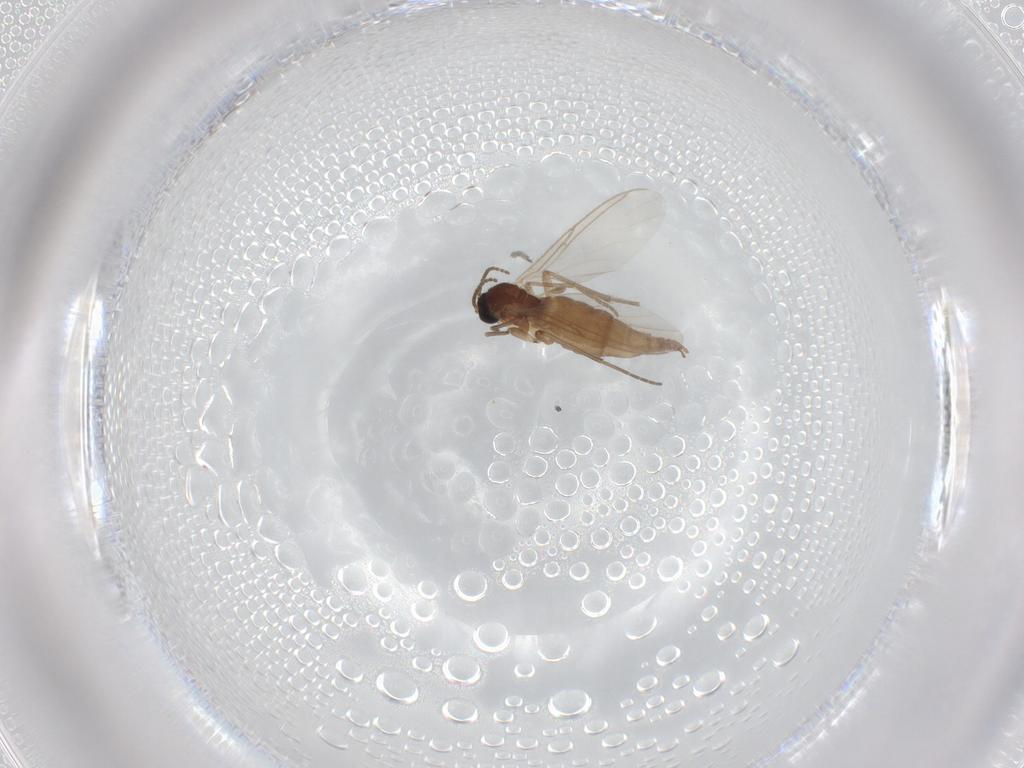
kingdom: Animalia
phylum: Arthropoda
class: Insecta
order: Diptera
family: Sciaridae
